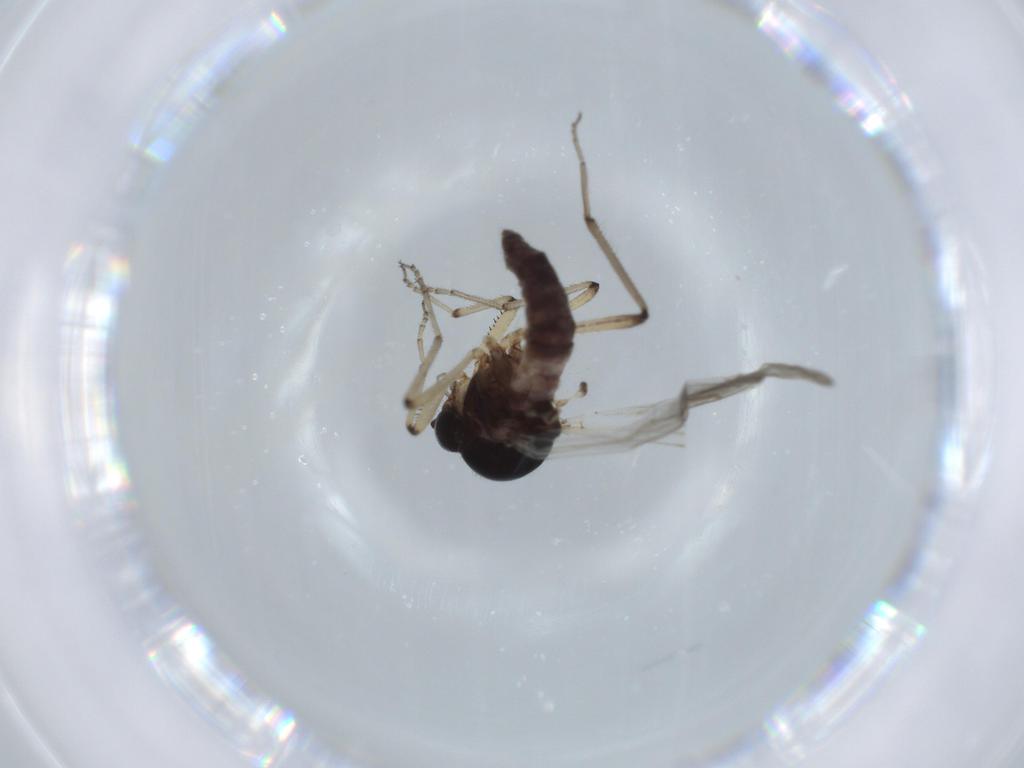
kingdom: Animalia
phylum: Arthropoda
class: Insecta
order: Diptera
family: Chironomidae
